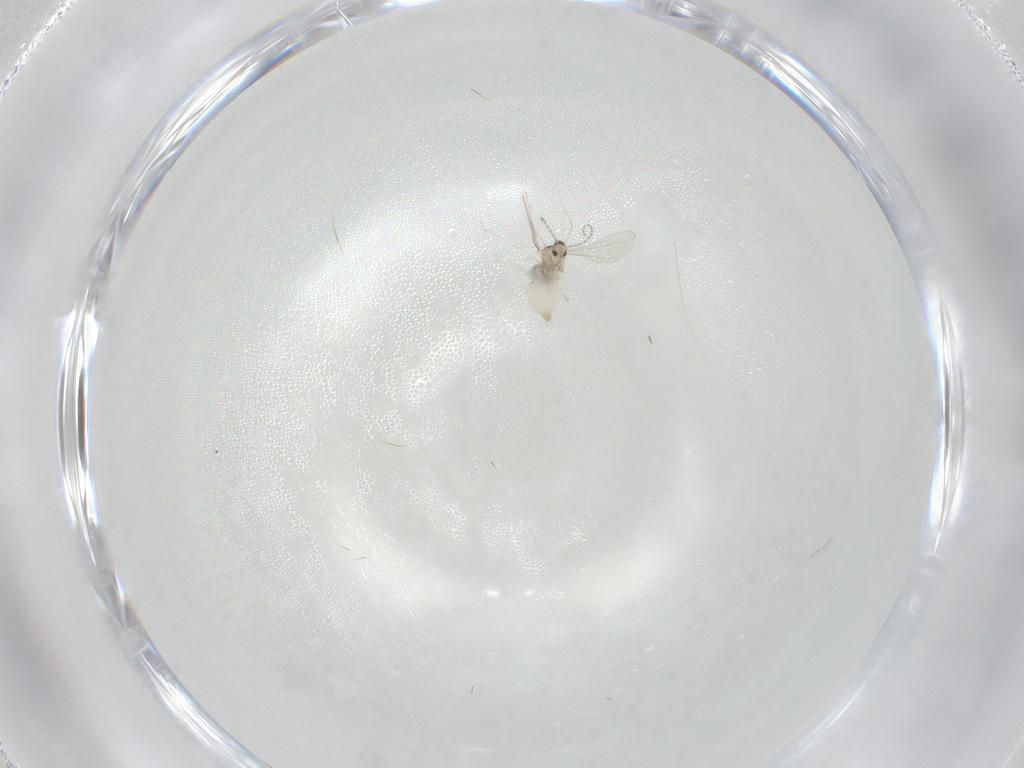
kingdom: Animalia
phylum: Arthropoda
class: Insecta
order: Diptera
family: Cecidomyiidae
